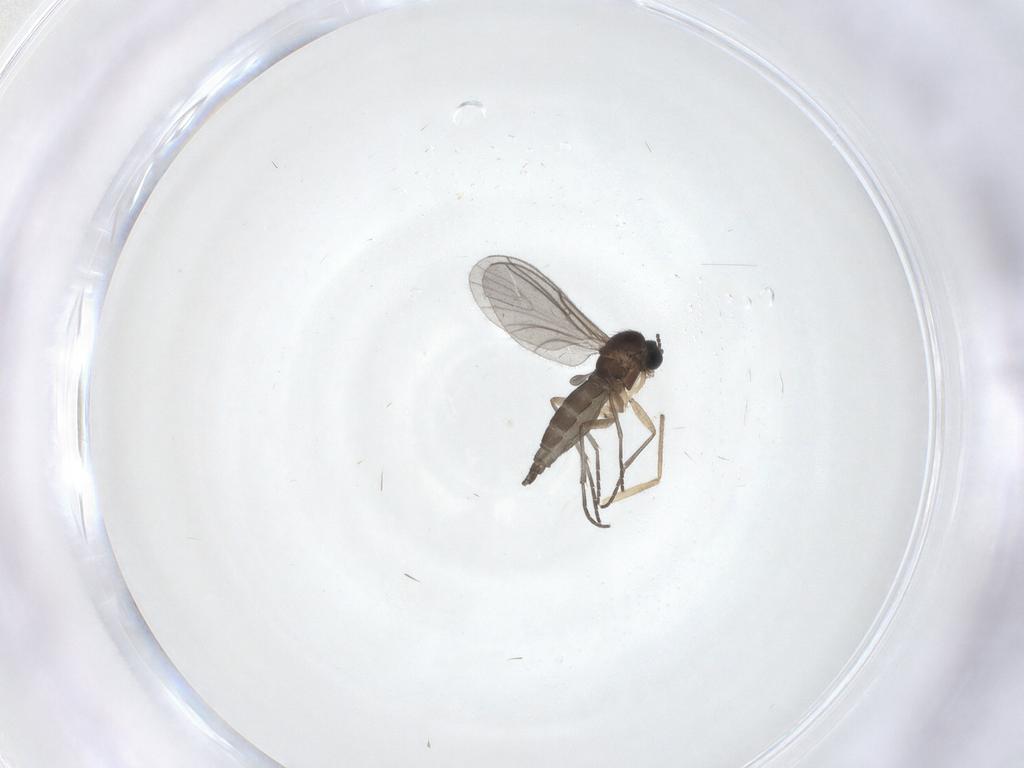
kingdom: Animalia
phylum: Arthropoda
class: Insecta
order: Diptera
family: Sciaridae
